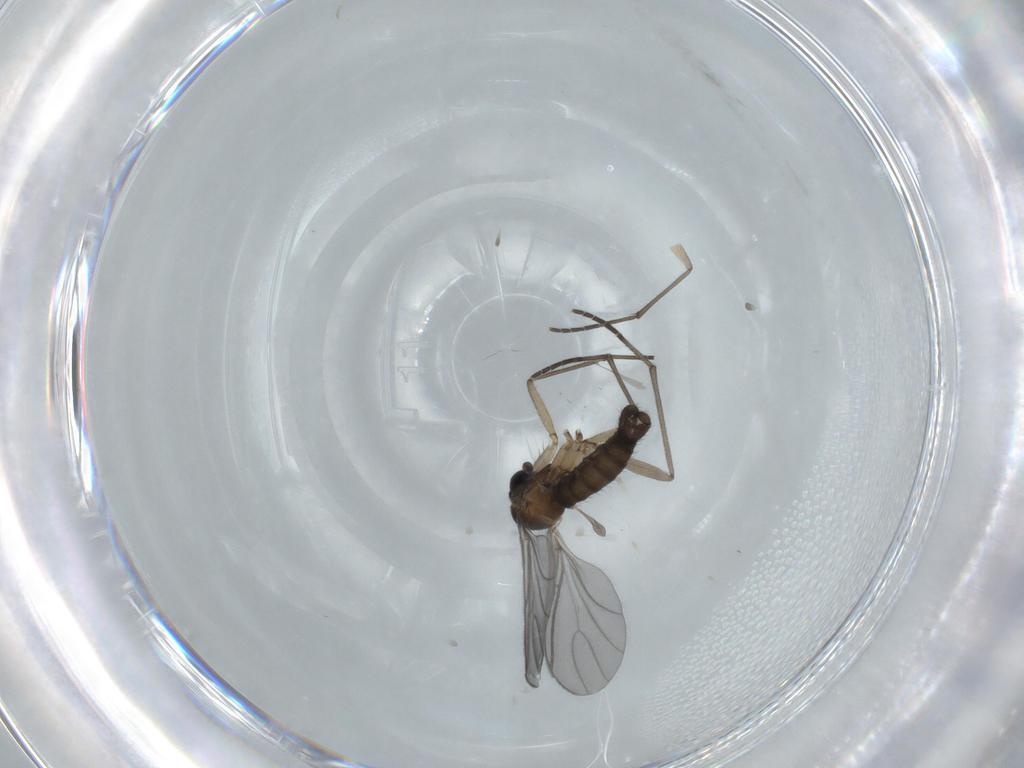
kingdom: Animalia
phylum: Arthropoda
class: Insecta
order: Diptera
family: Sciaridae
